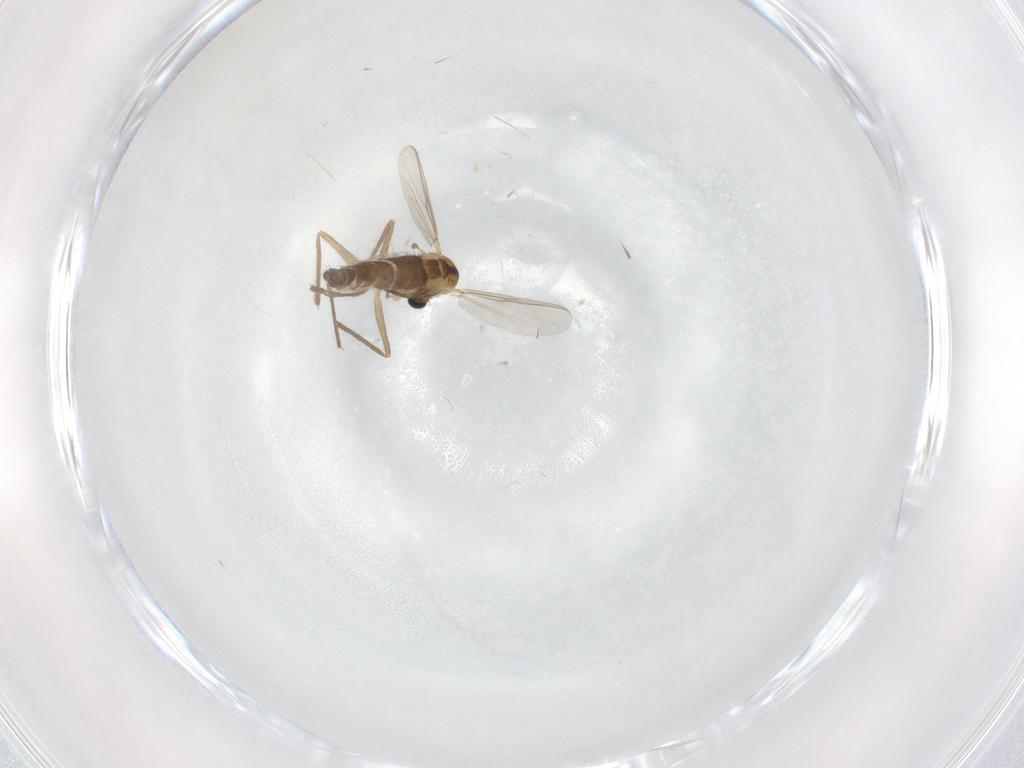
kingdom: Animalia
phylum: Arthropoda
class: Insecta
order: Diptera
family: Chironomidae
